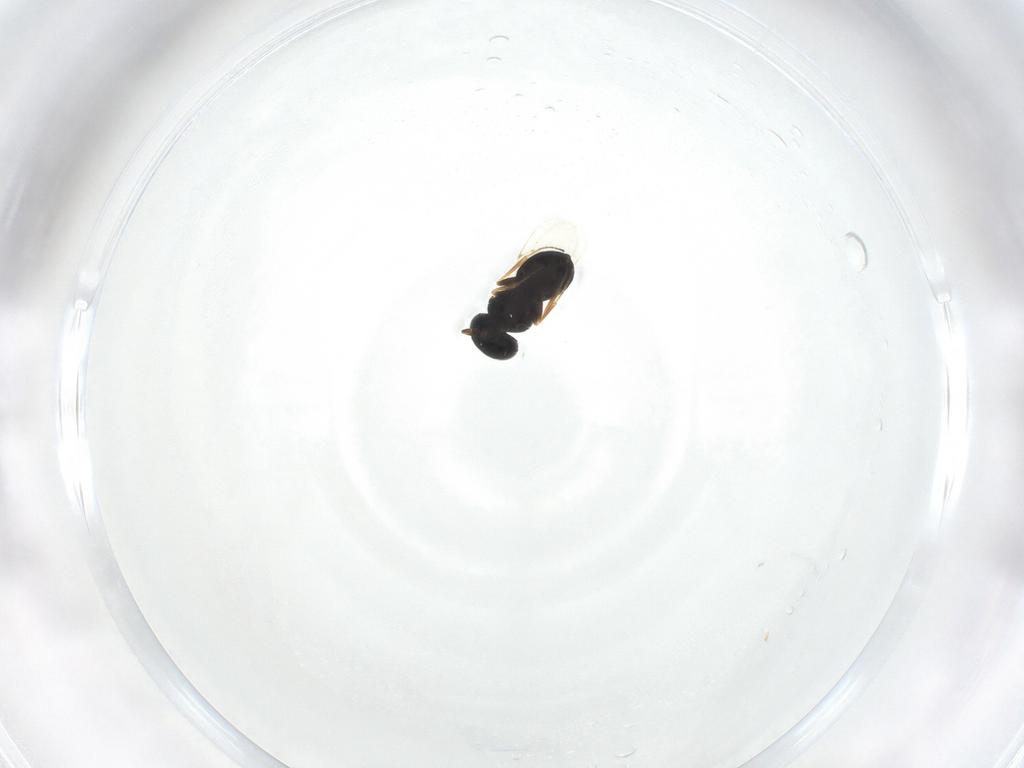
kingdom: Animalia
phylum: Arthropoda
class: Insecta
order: Hymenoptera
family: Scelionidae
